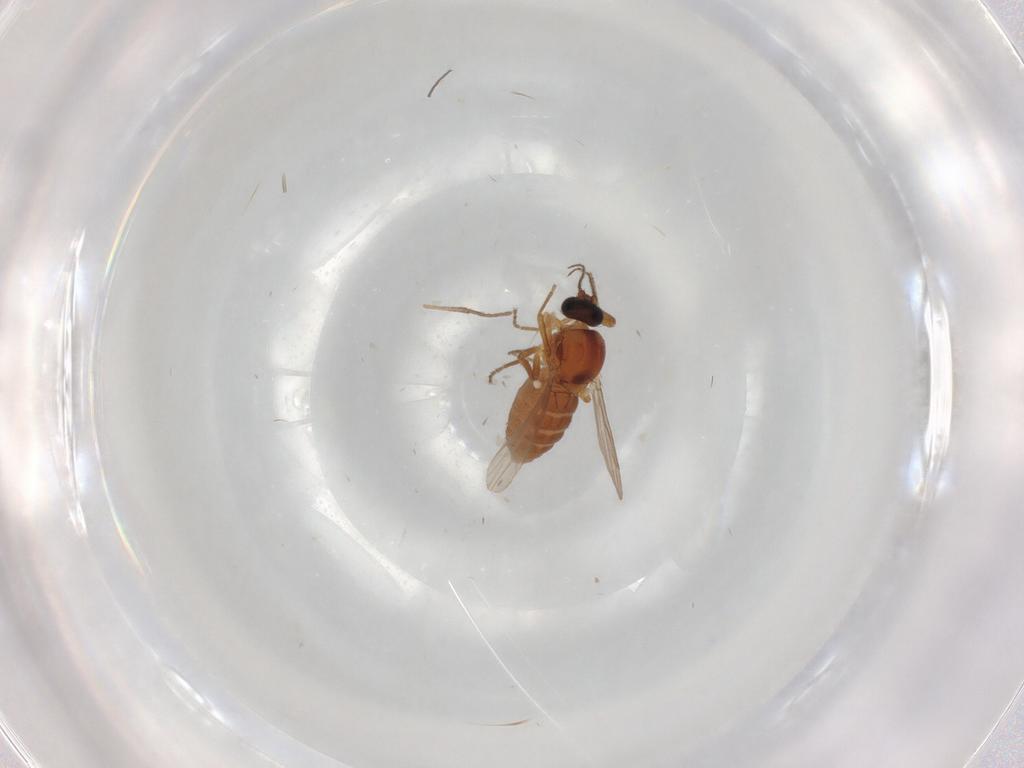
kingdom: Animalia
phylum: Arthropoda
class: Insecta
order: Diptera
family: Ceratopogonidae
